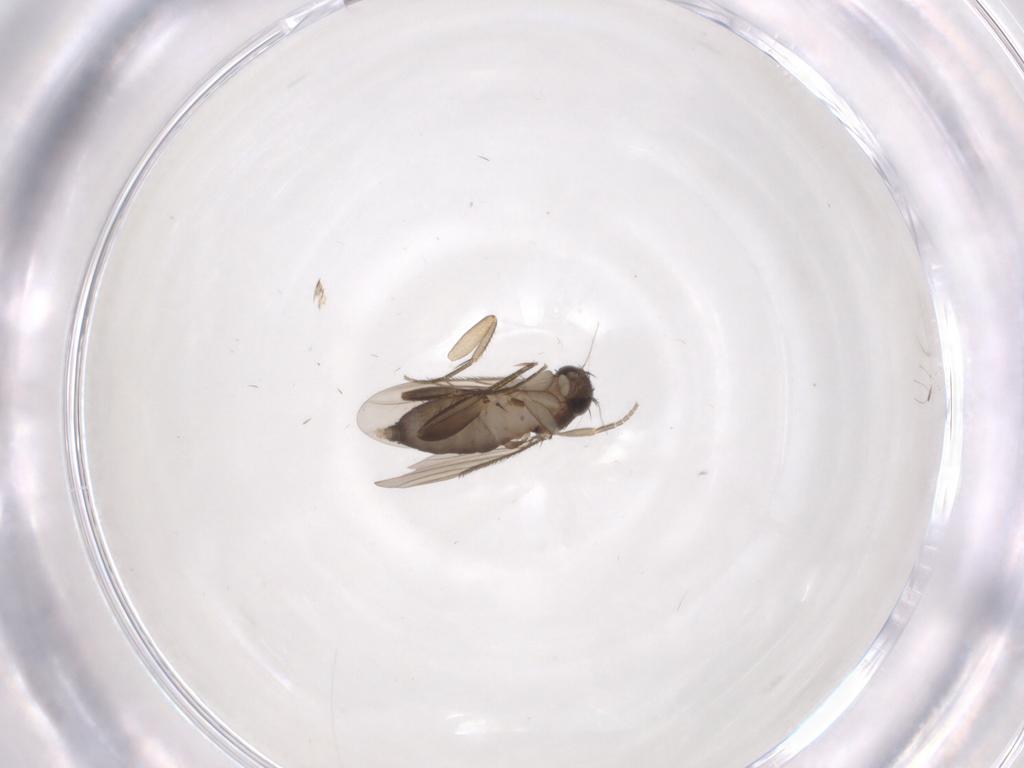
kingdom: Animalia
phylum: Arthropoda
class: Insecta
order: Diptera
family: Phoridae
